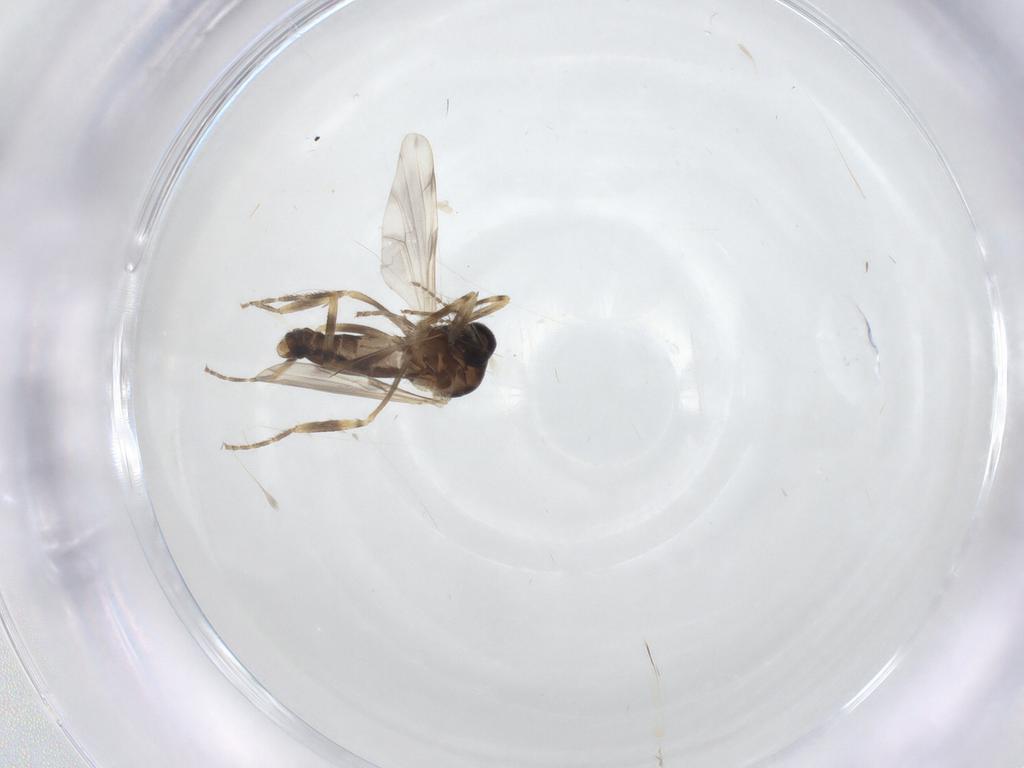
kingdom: Animalia
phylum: Arthropoda
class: Insecta
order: Diptera
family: Ceratopogonidae
